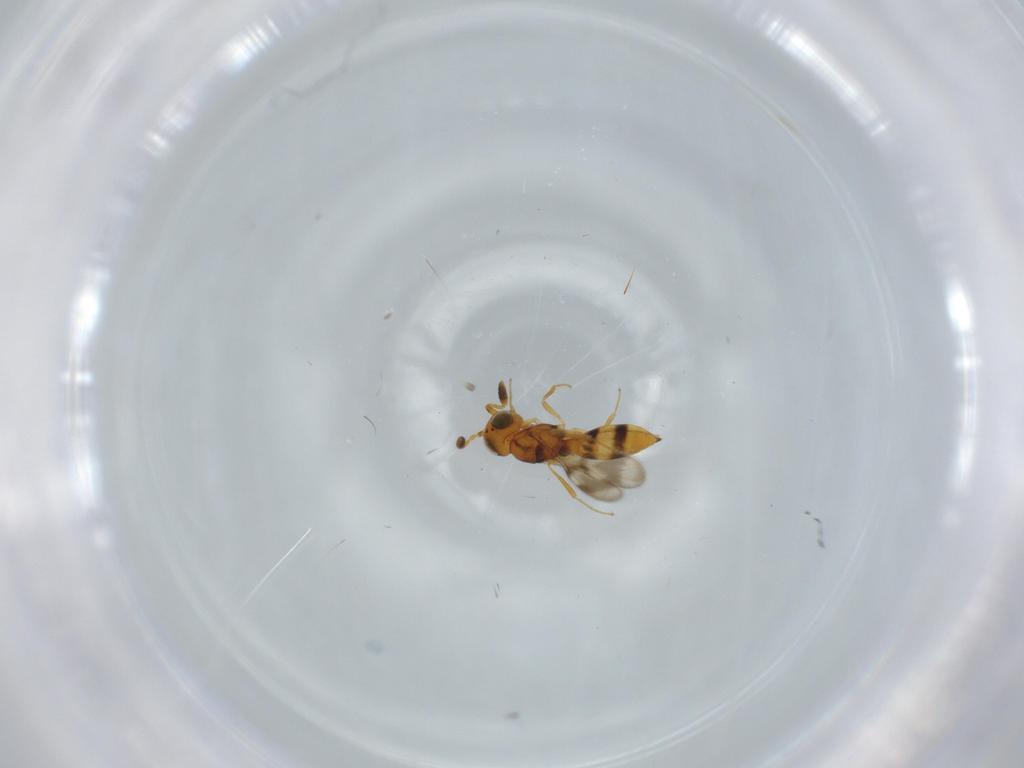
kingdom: Animalia
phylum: Arthropoda
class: Insecta
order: Hymenoptera
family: Scelionidae
